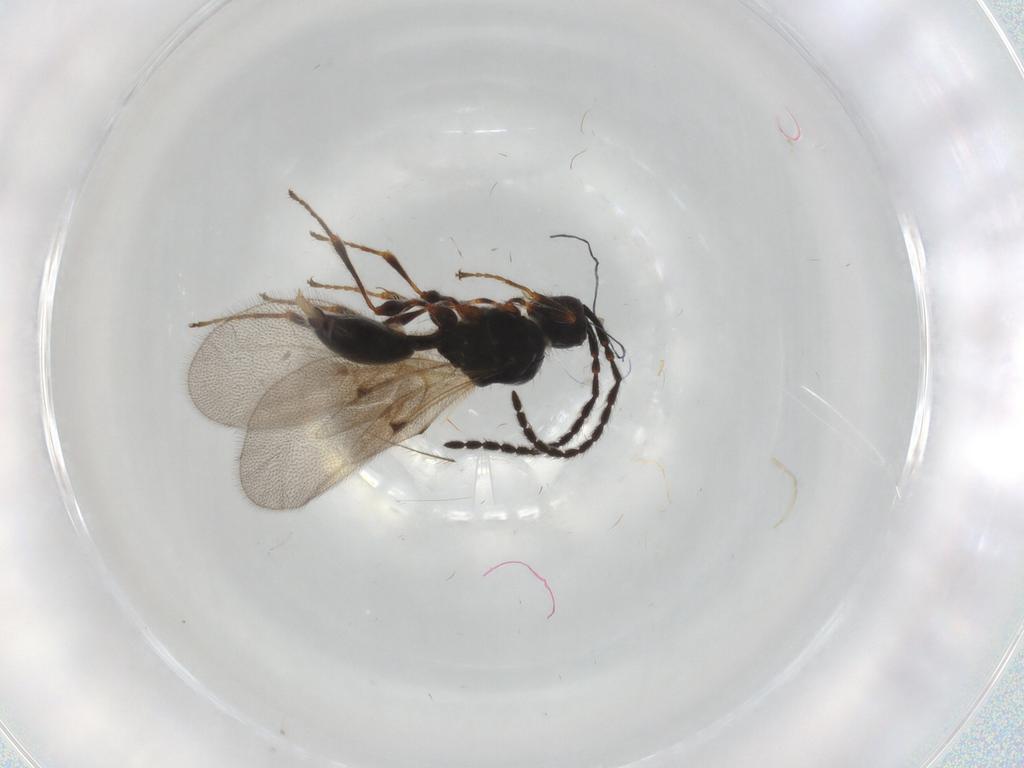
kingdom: Animalia
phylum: Arthropoda
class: Insecta
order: Hymenoptera
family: Diapriidae
